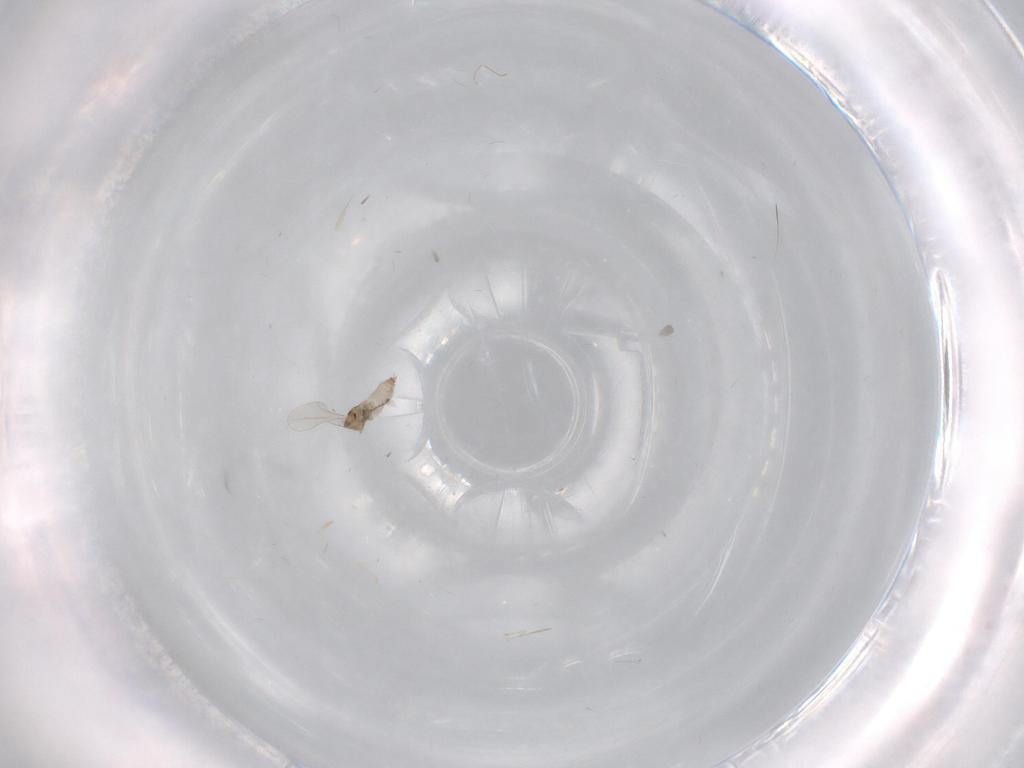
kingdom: Animalia
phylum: Arthropoda
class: Insecta
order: Diptera
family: Cecidomyiidae
